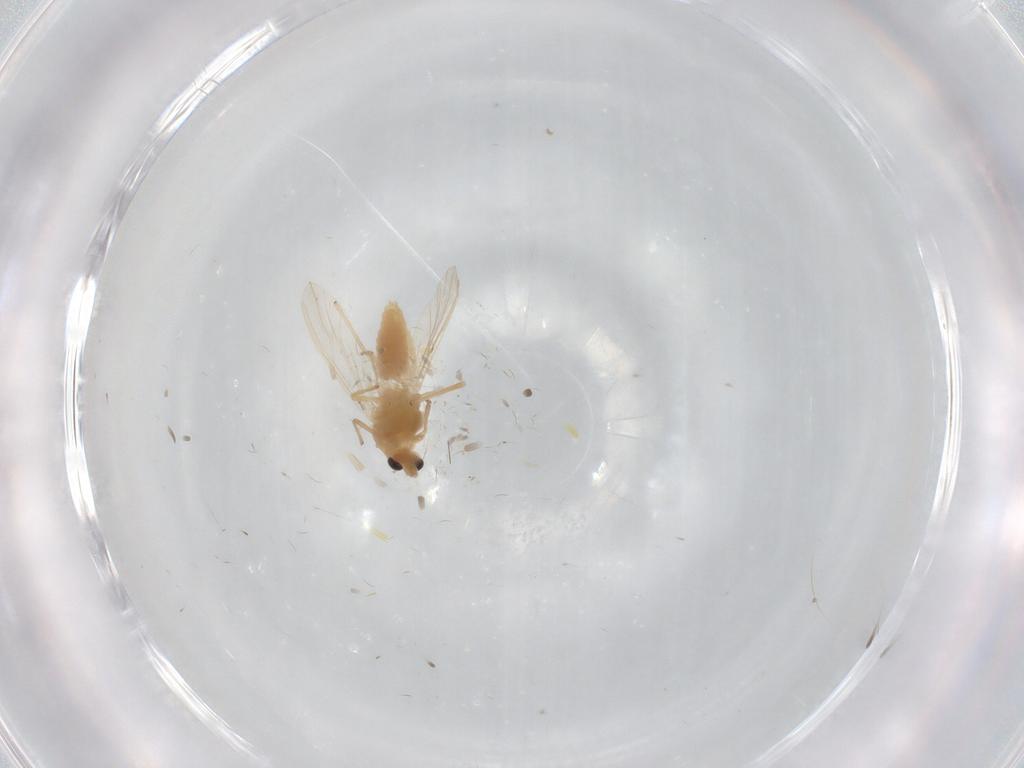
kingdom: Animalia
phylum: Arthropoda
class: Insecta
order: Diptera
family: Chironomidae
